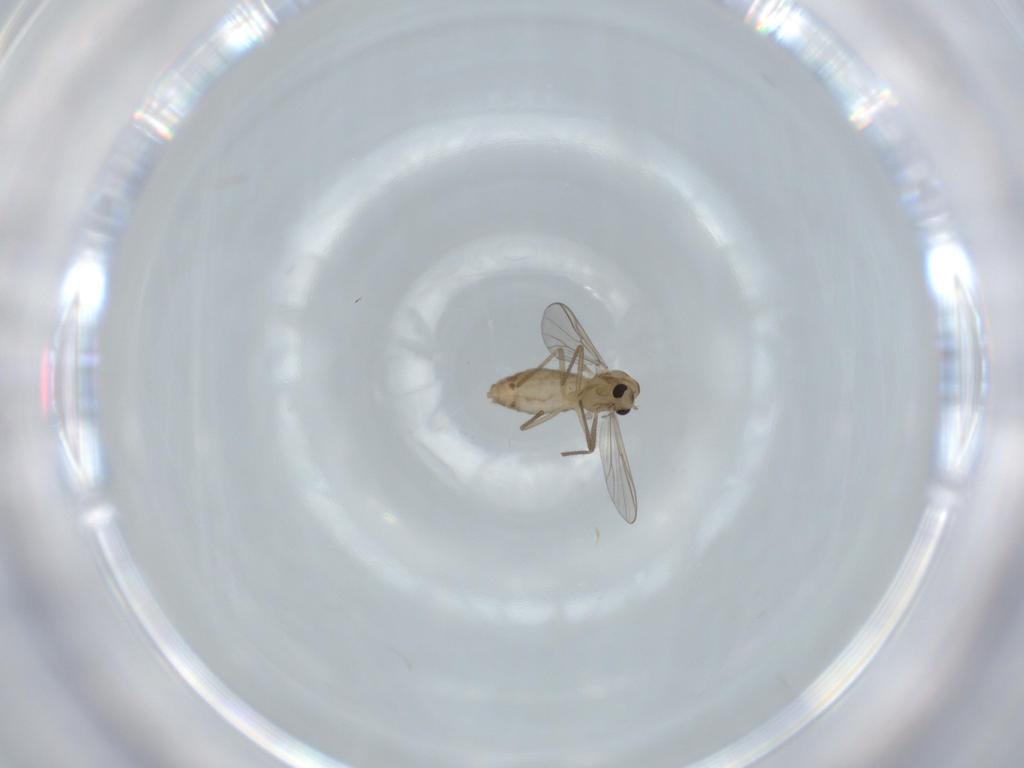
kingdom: Animalia
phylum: Arthropoda
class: Insecta
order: Diptera
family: Chironomidae
